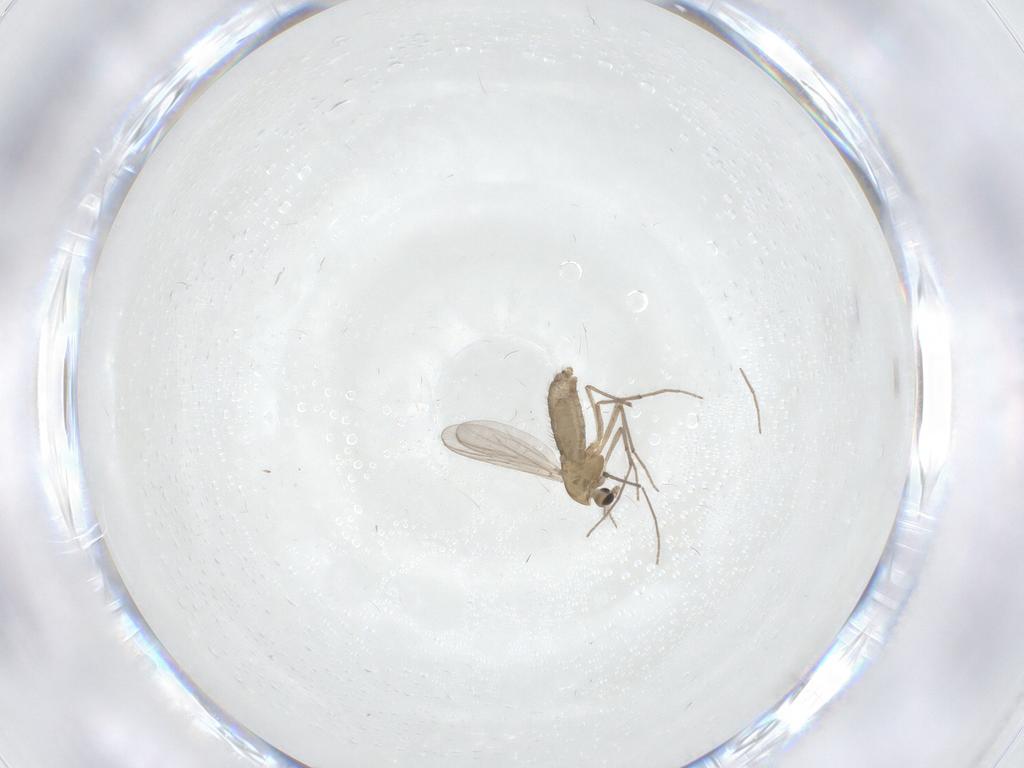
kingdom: Animalia
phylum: Arthropoda
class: Insecta
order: Diptera
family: Chironomidae
